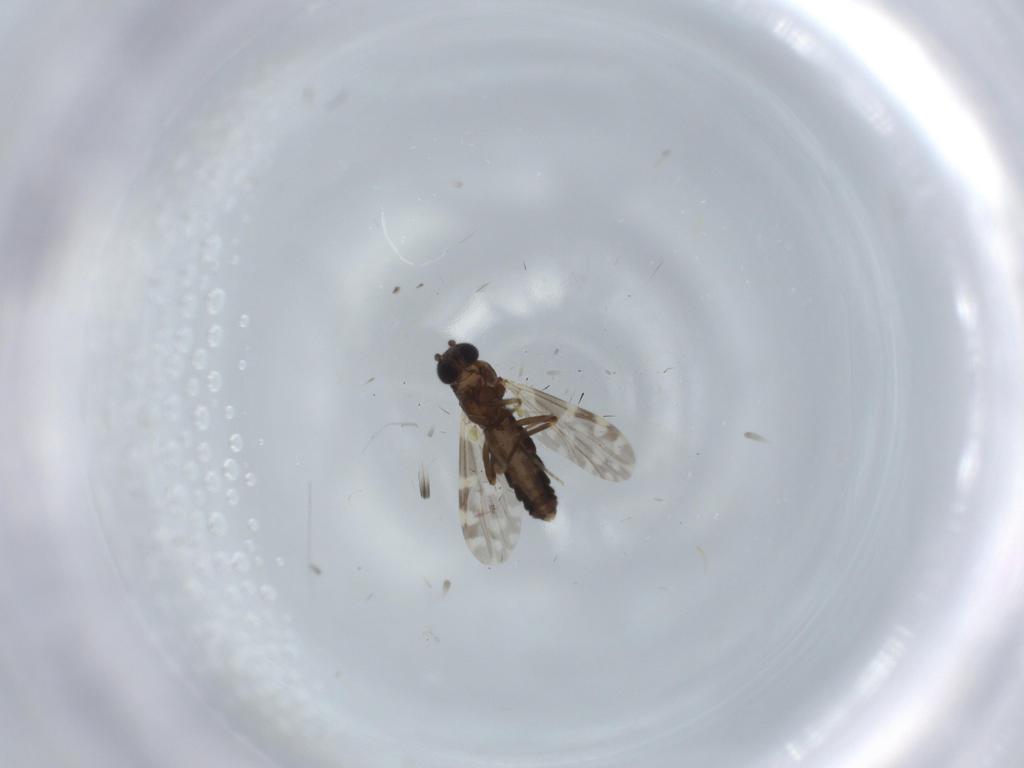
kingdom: Animalia
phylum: Arthropoda
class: Insecta
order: Diptera
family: Ceratopogonidae
